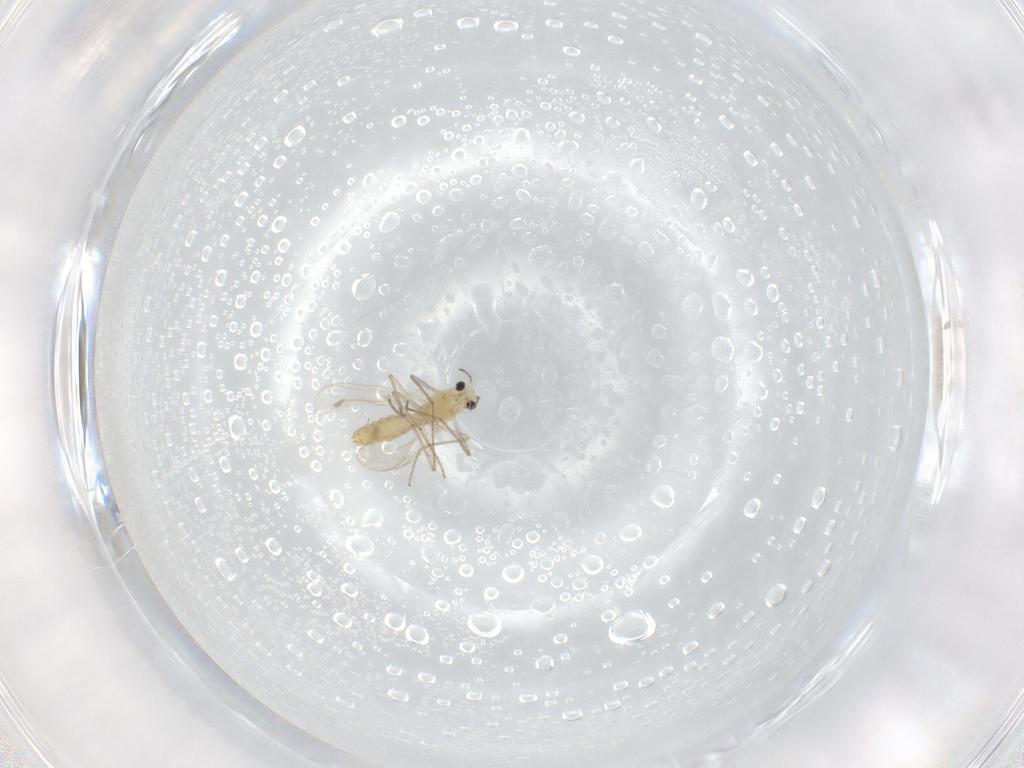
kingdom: Animalia
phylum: Arthropoda
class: Insecta
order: Diptera
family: Chironomidae
